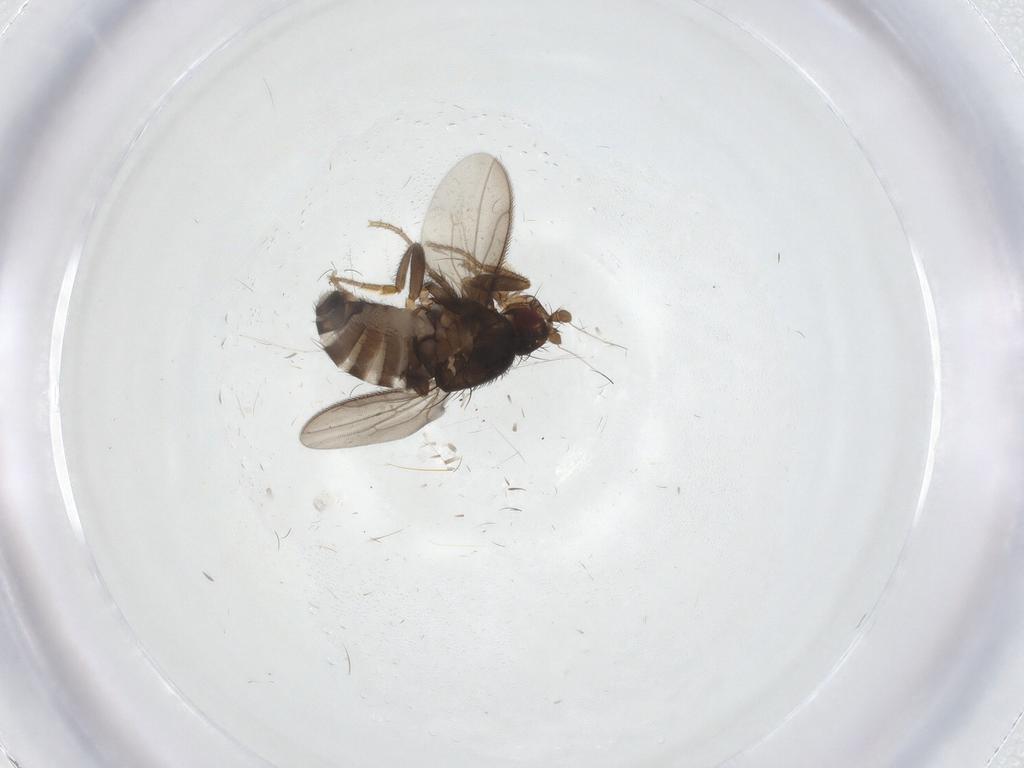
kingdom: Animalia
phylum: Arthropoda
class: Insecta
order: Diptera
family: Sphaeroceridae
